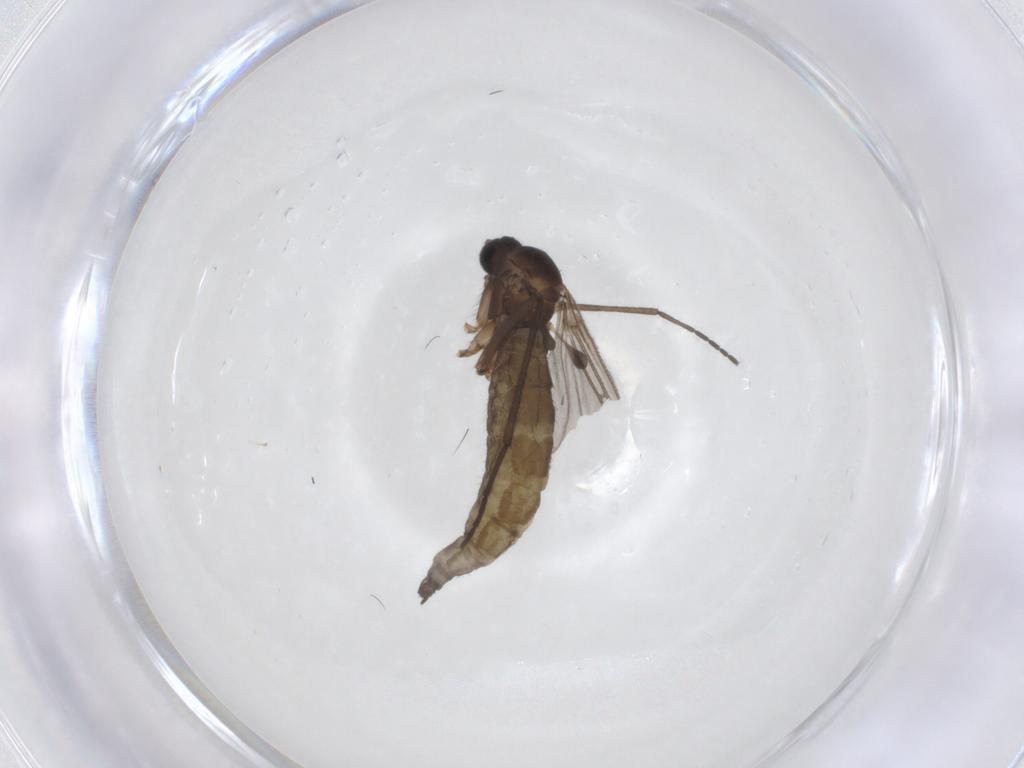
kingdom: Animalia
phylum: Arthropoda
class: Insecta
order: Diptera
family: Sciaridae
